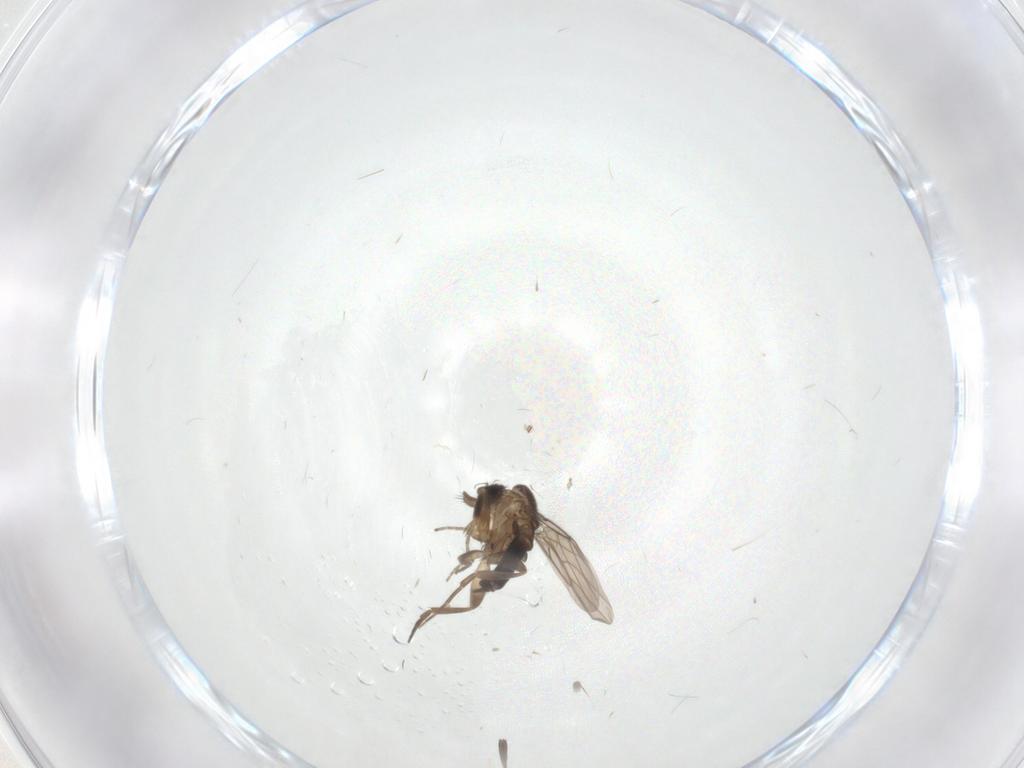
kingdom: Animalia
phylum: Arthropoda
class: Insecta
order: Diptera
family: Phoridae
